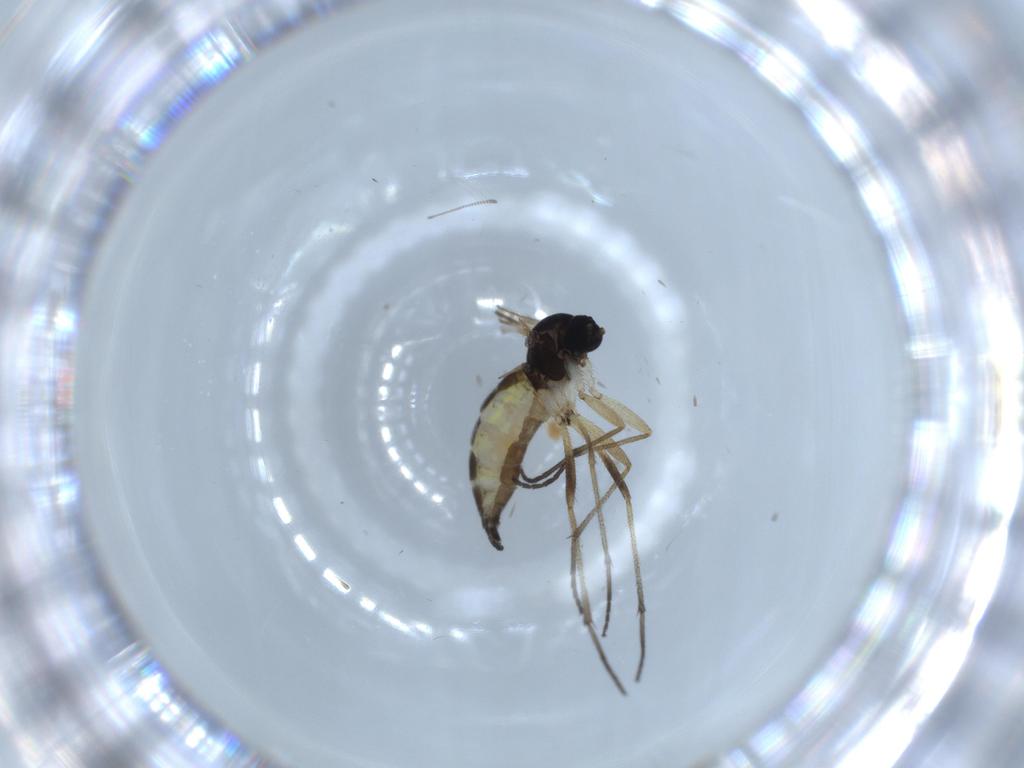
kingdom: Animalia
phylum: Arthropoda
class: Insecta
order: Diptera
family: Sciaridae
